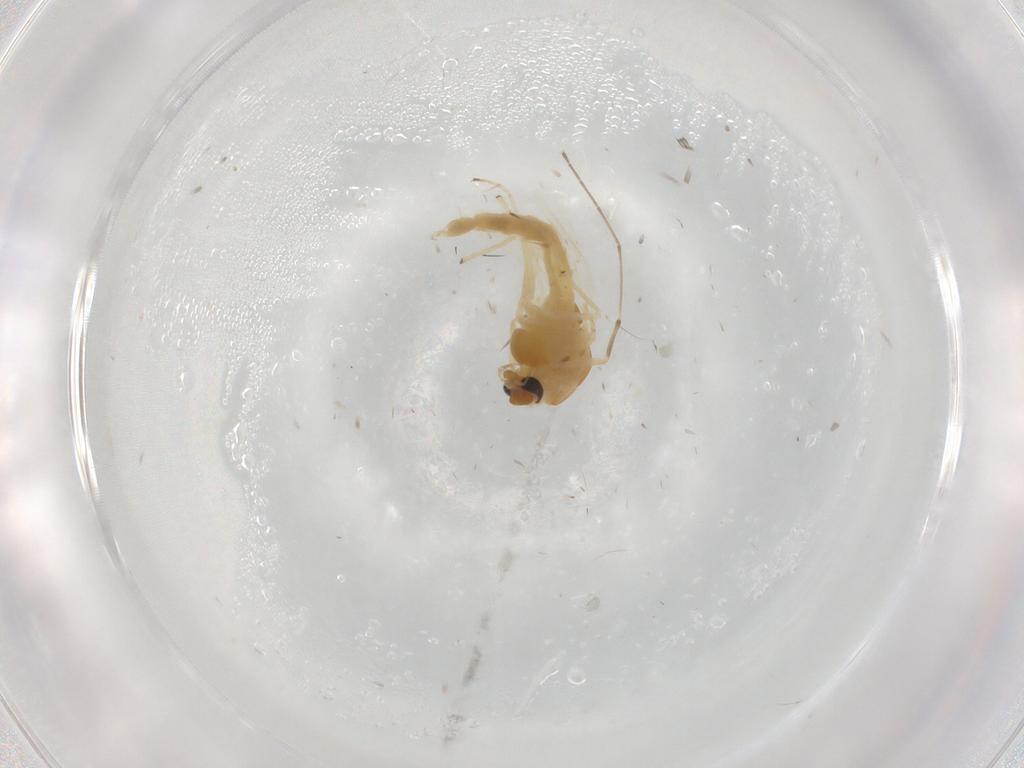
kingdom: Animalia
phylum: Arthropoda
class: Insecta
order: Diptera
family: Chironomidae
